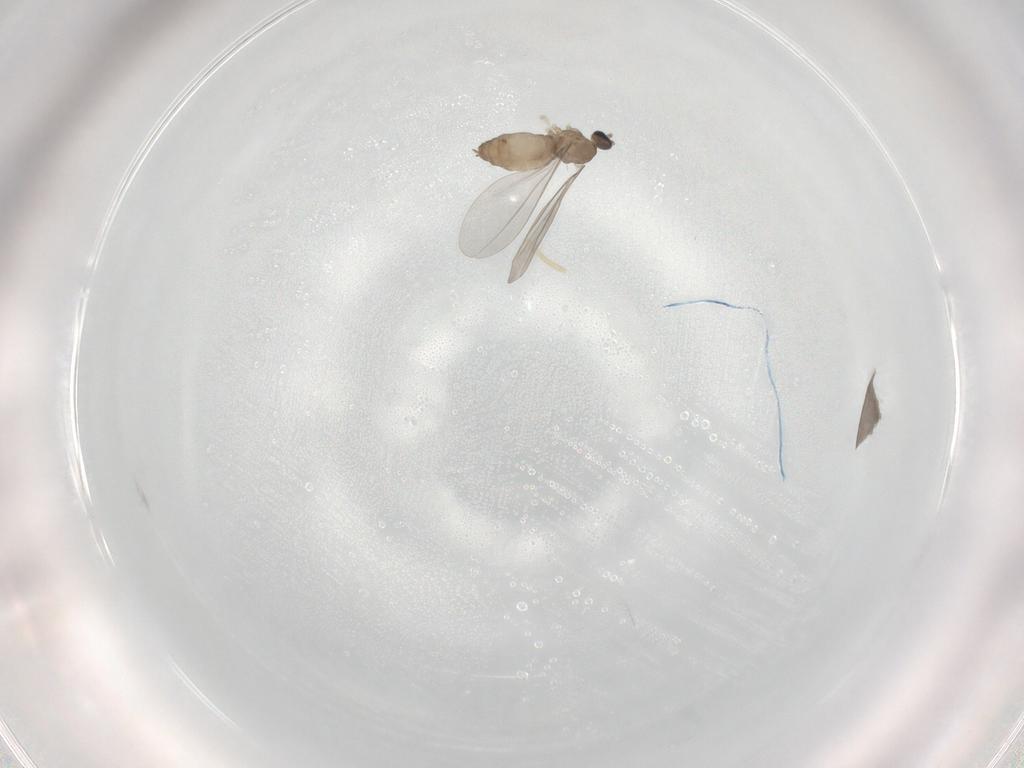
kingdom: Animalia
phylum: Arthropoda
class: Insecta
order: Diptera
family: Cecidomyiidae
